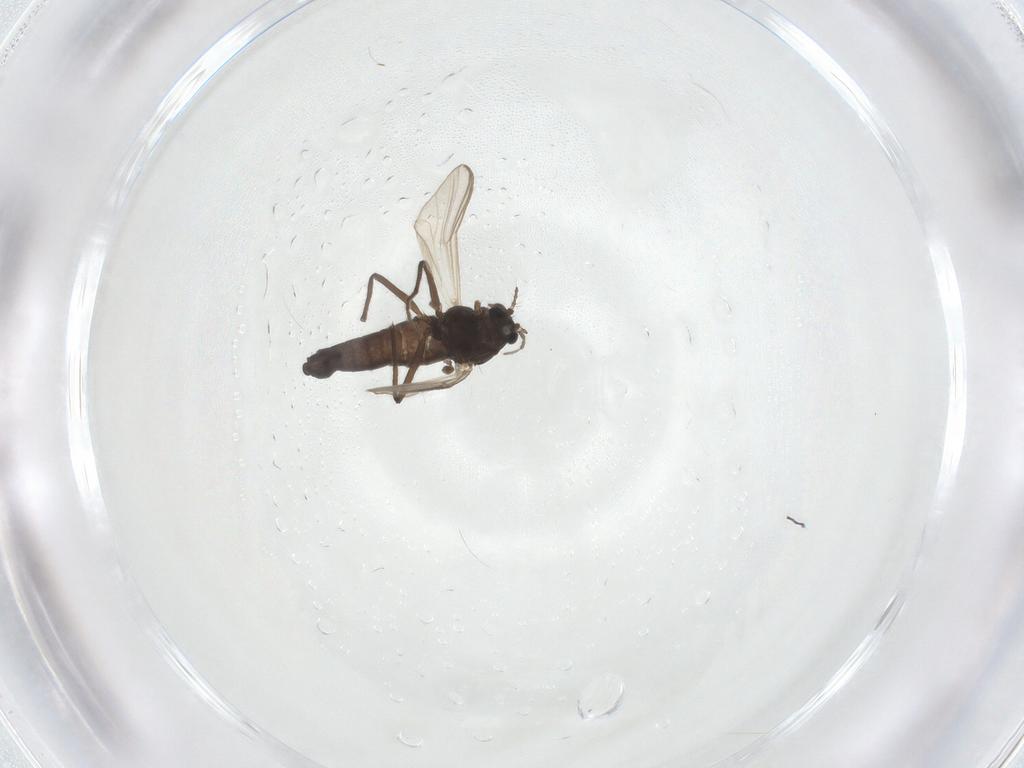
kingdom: Animalia
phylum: Arthropoda
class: Insecta
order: Diptera
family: Chironomidae
